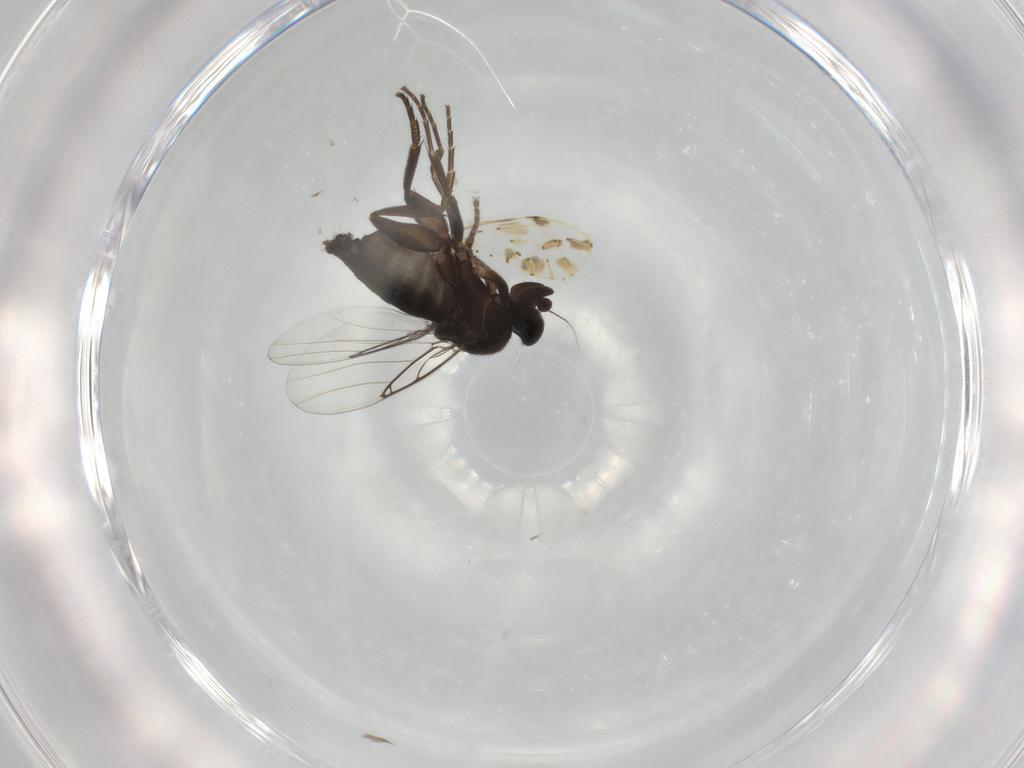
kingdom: Animalia
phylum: Arthropoda
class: Insecta
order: Diptera
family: Phoridae
